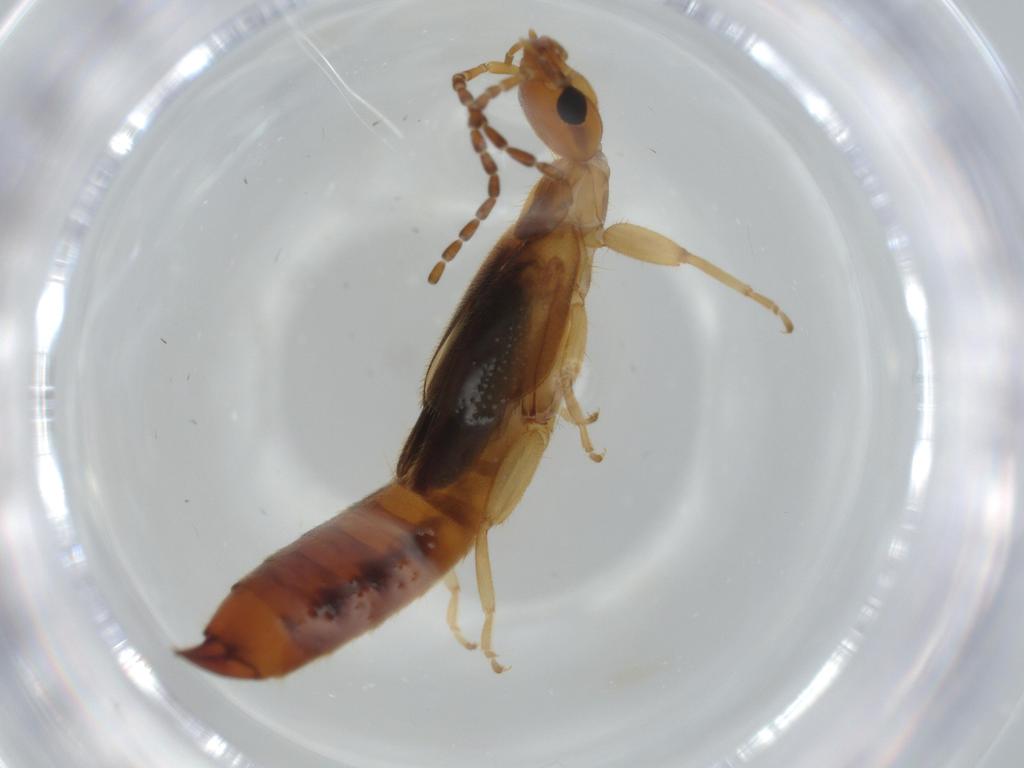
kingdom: Animalia
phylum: Arthropoda
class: Insecta
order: Dermaptera
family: Forficulidae
